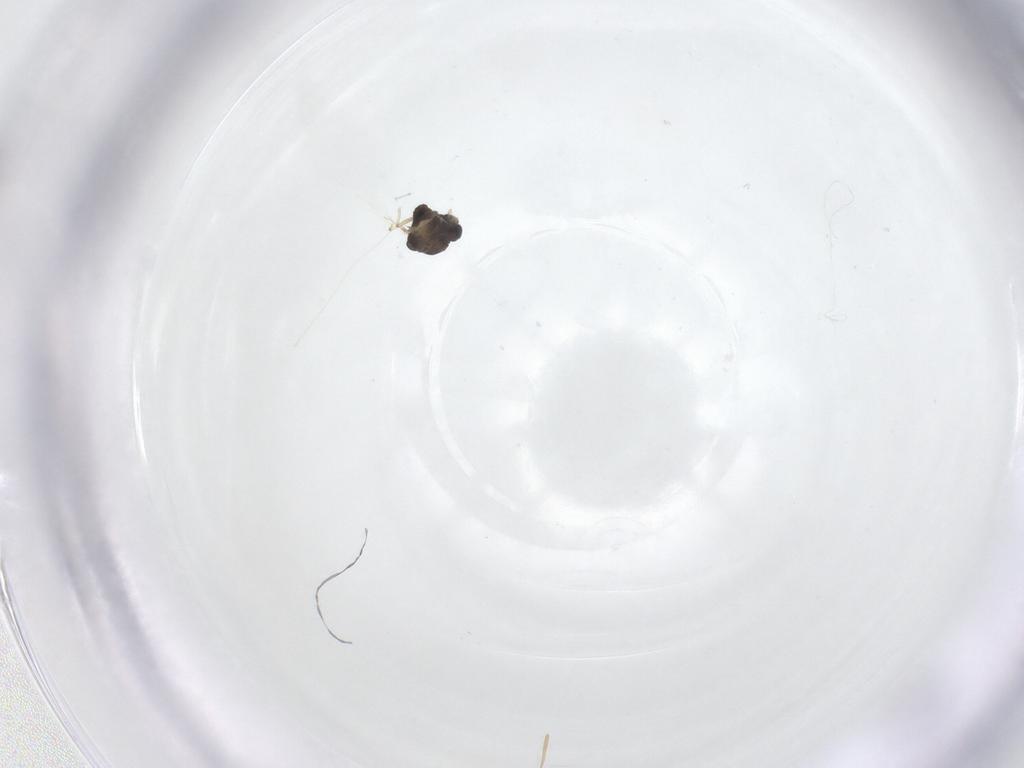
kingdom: Animalia
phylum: Arthropoda
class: Insecta
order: Diptera
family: Chironomidae
